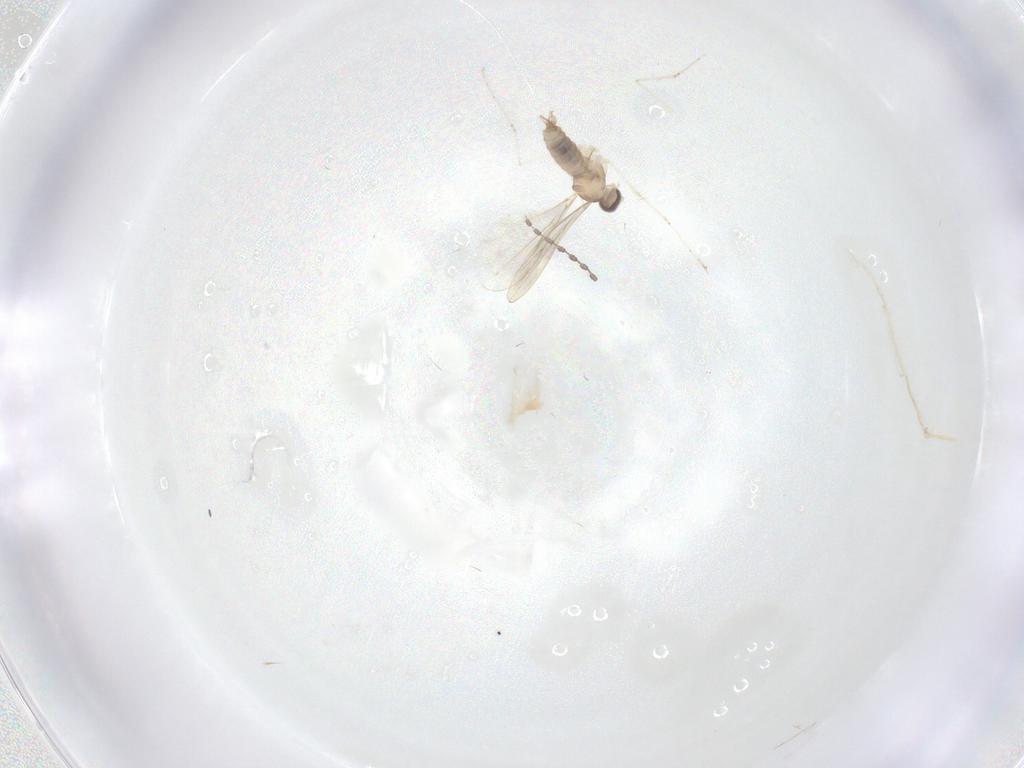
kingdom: Animalia
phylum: Arthropoda
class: Insecta
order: Diptera
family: Cecidomyiidae
